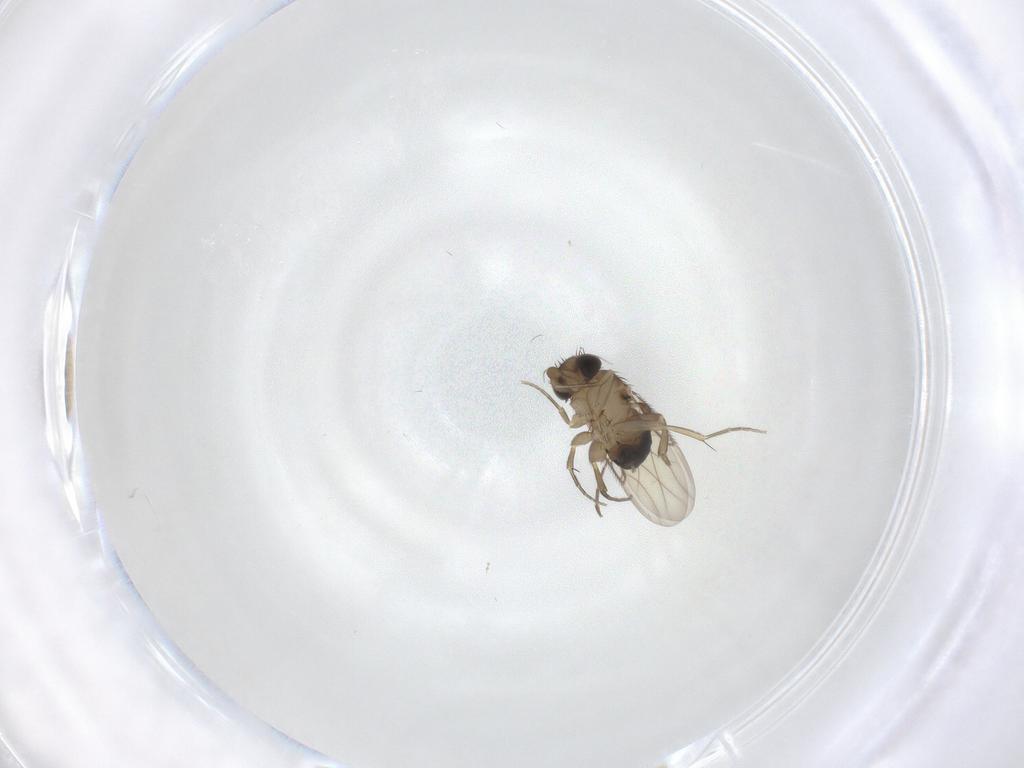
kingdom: Animalia
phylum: Arthropoda
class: Insecta
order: Diptera
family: Phoridae
